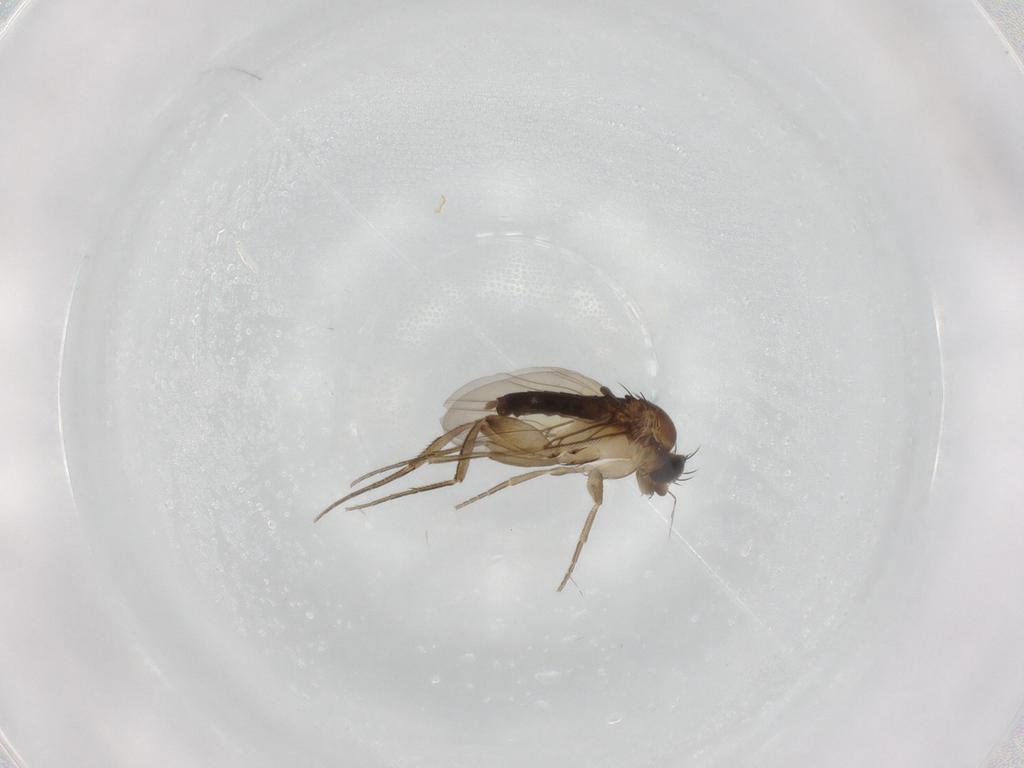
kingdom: Animalia
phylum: Arthropoda
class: Insecta
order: Diptera
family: Phoridae
